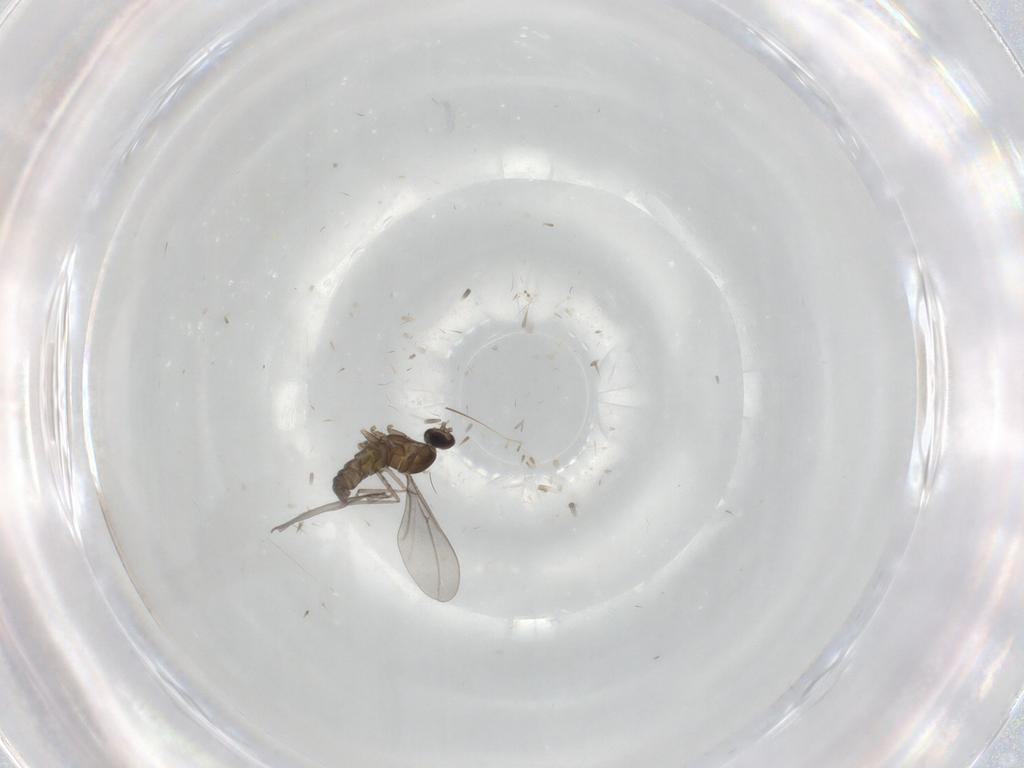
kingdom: Animalia
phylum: Arthropoda
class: Insecta
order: Diptera
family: Cecidomyiidae
